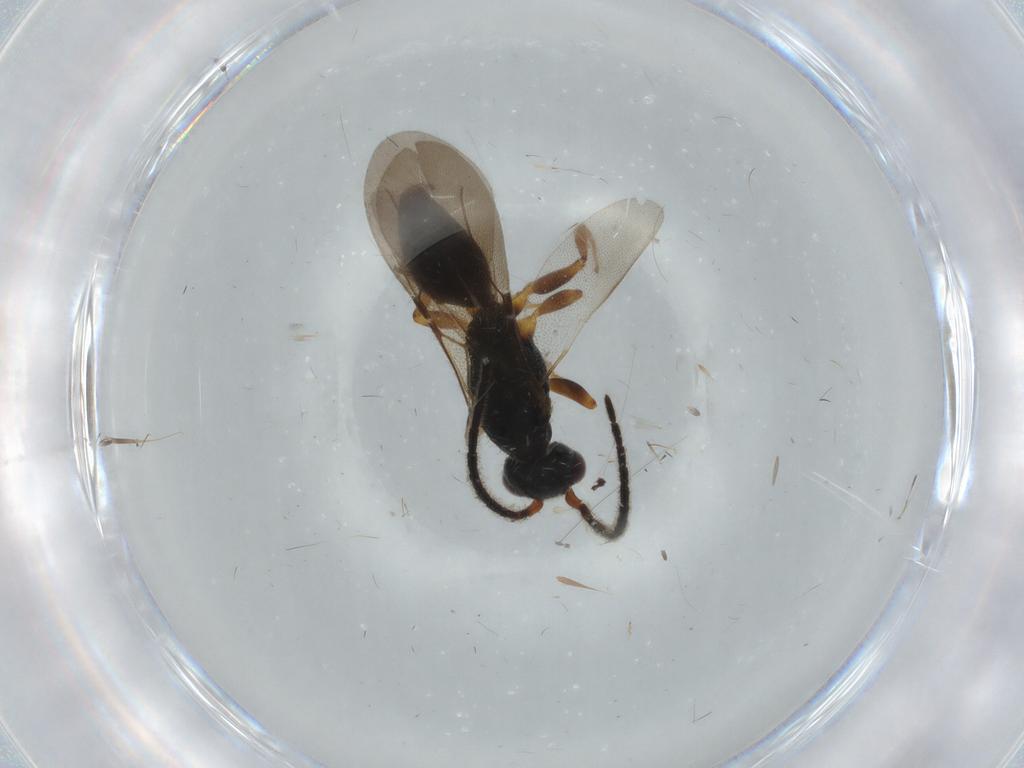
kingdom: Animalia
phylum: Arthropoda
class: Insecta
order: Hymenoptera
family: Bethylidae
